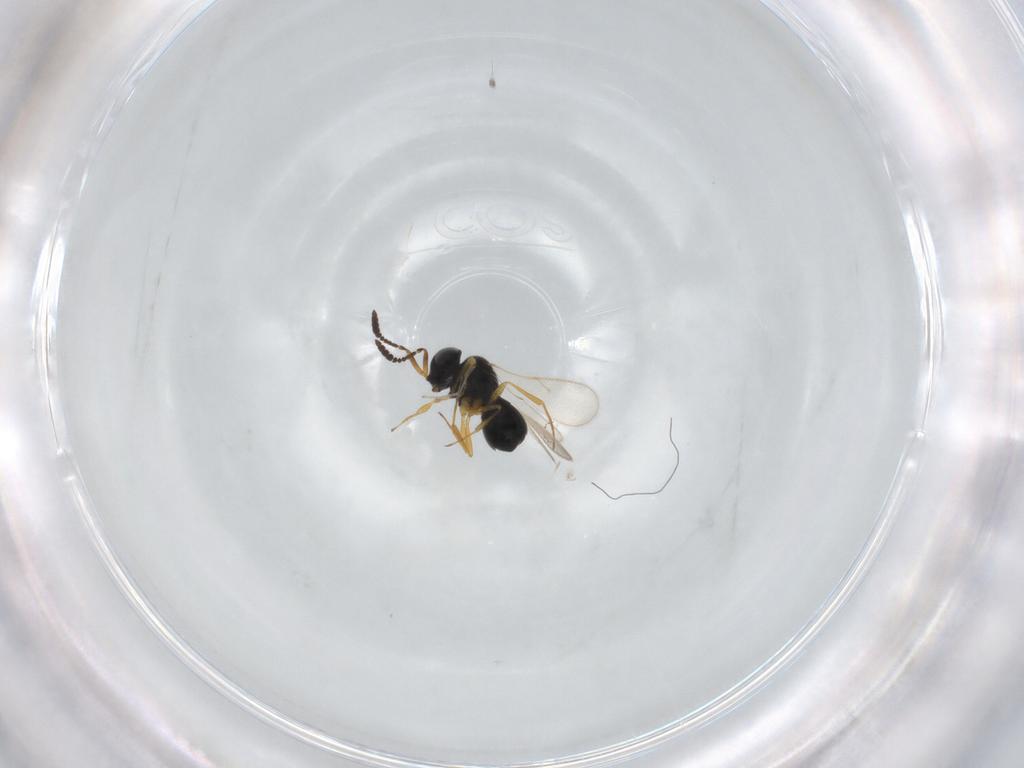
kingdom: Animalia
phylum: Arthropoda
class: Insecta
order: Hymenoptera
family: Scelionidae
